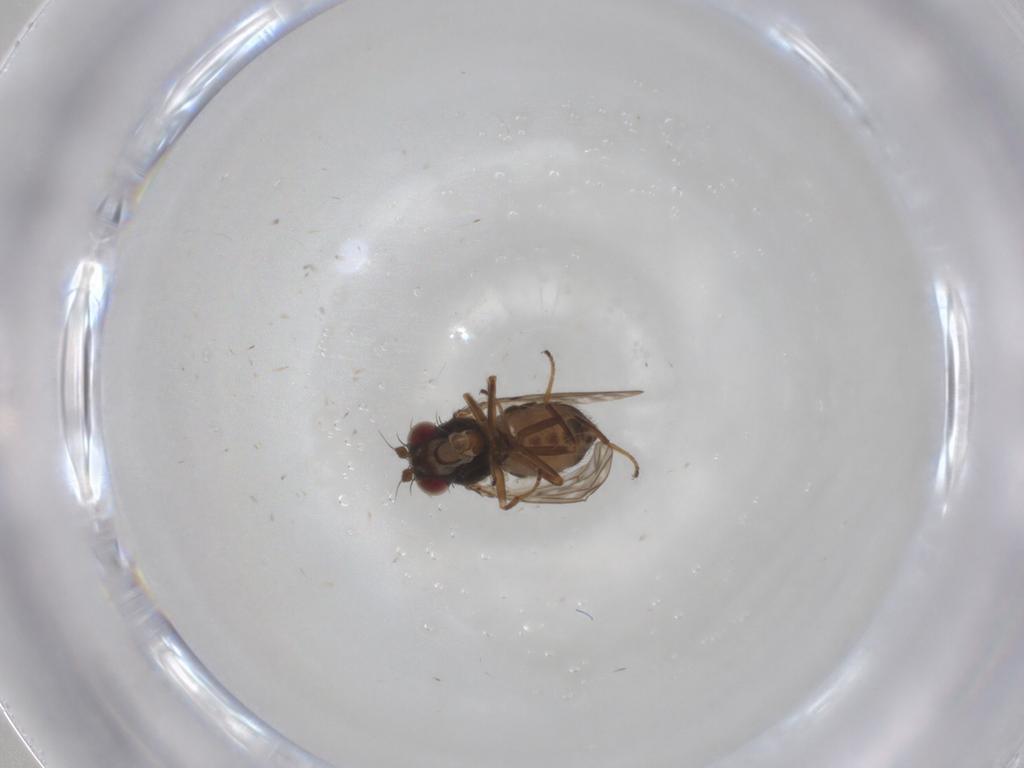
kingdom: Animalia
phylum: Arthropoda
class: Insecta
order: Diptera
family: Ephydridae
